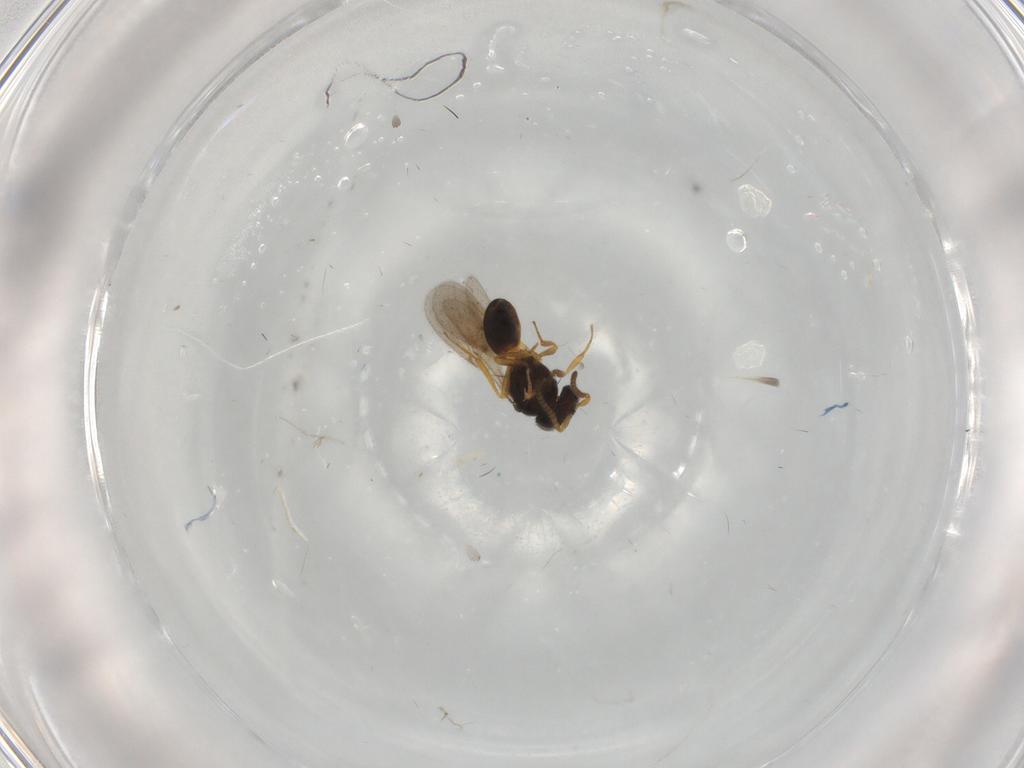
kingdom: Animalia
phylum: Arthropoda
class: Insecta
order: Hymenoptera
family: Scelionidae
